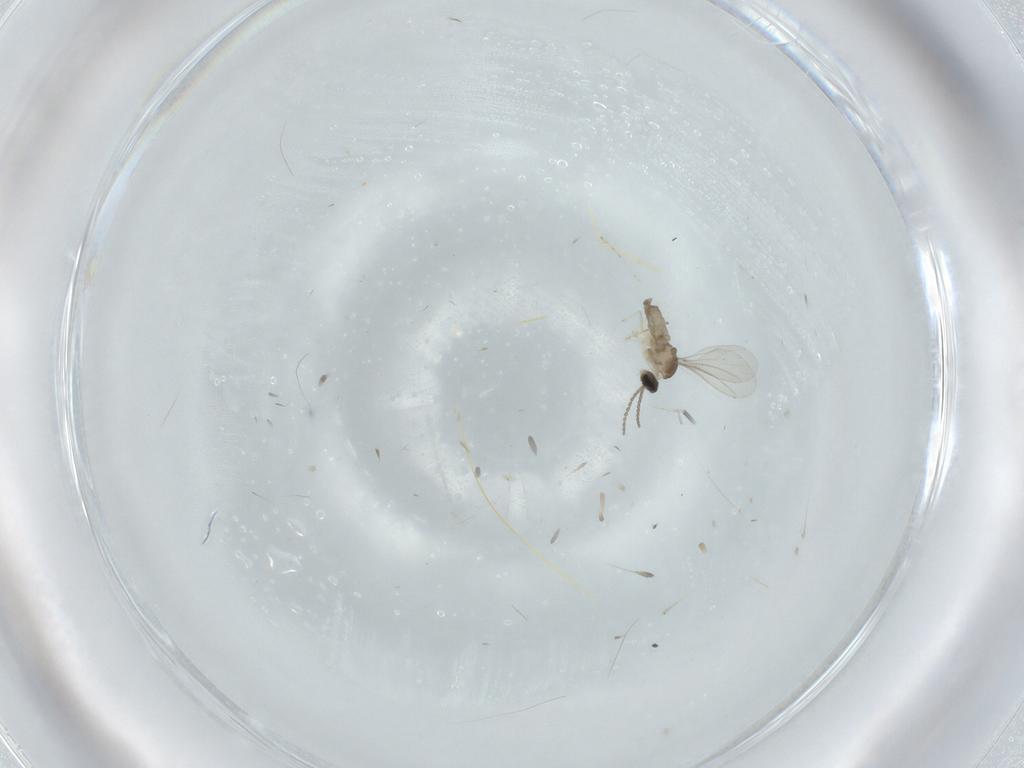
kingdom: Animalia
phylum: Arthropoda
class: Insecta
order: Diptera
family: Cecidomyiidae
